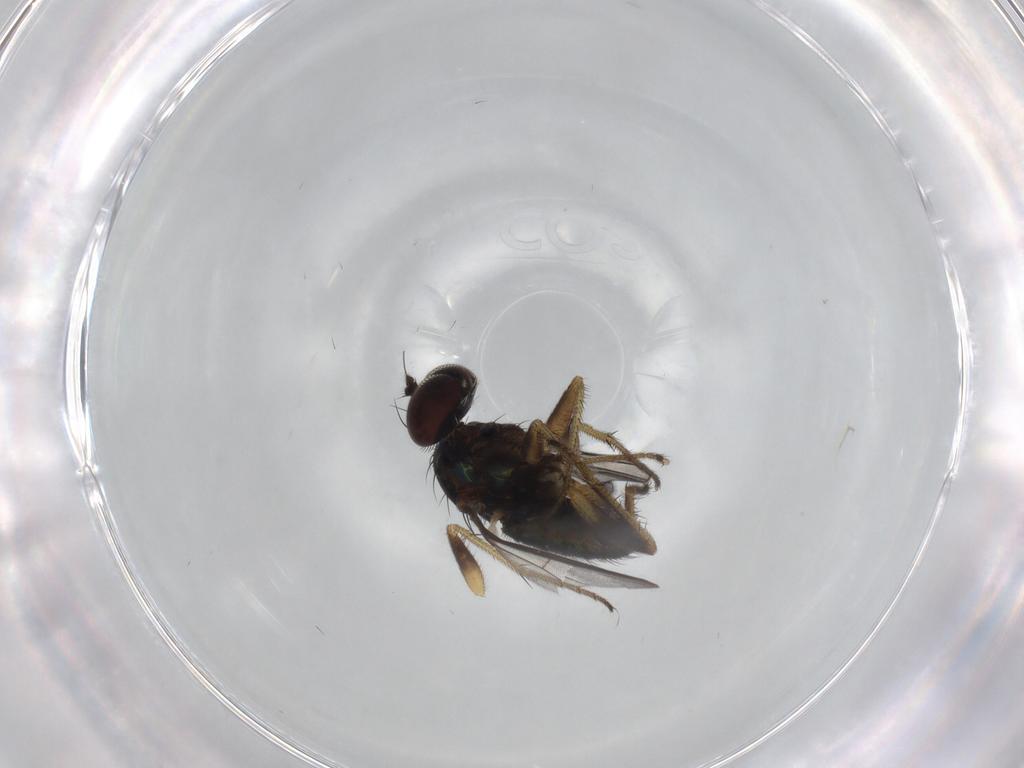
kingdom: Animalia
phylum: Arthropoda
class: Insecta
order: Diptera
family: Dolichopodidae
